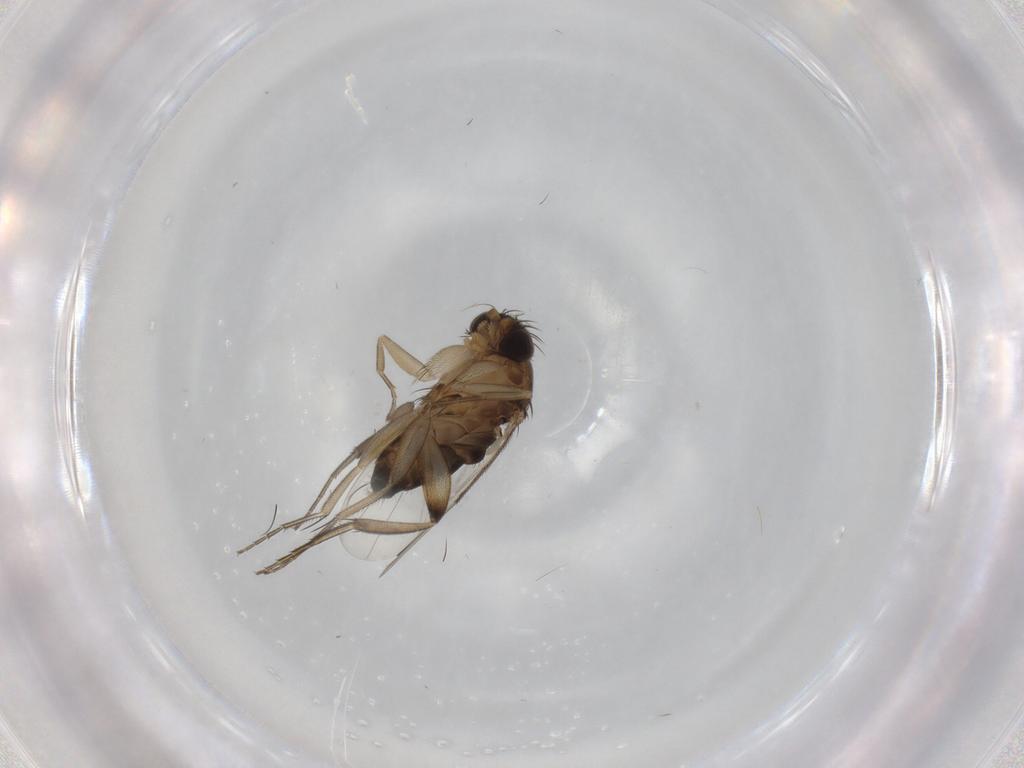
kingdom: Animalia
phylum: Arthropoda
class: Insecta
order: Diptera
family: Phoridae
